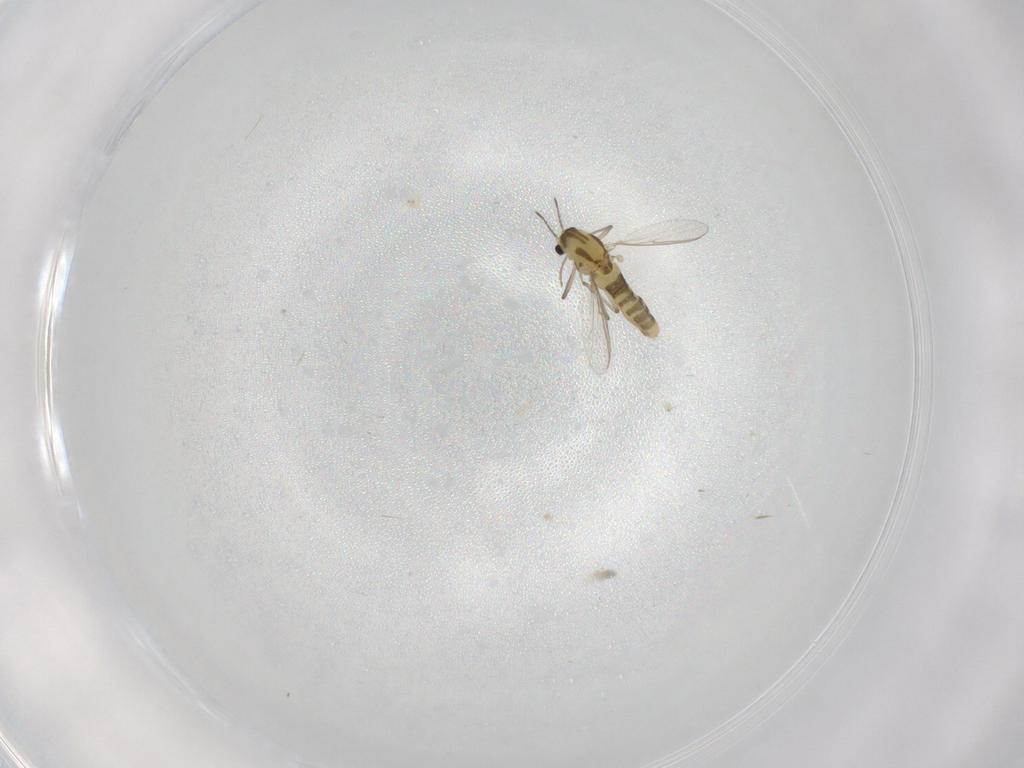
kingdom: Animalia
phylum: Arthropoda
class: Insecta
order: Diptera
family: Chironomidae
